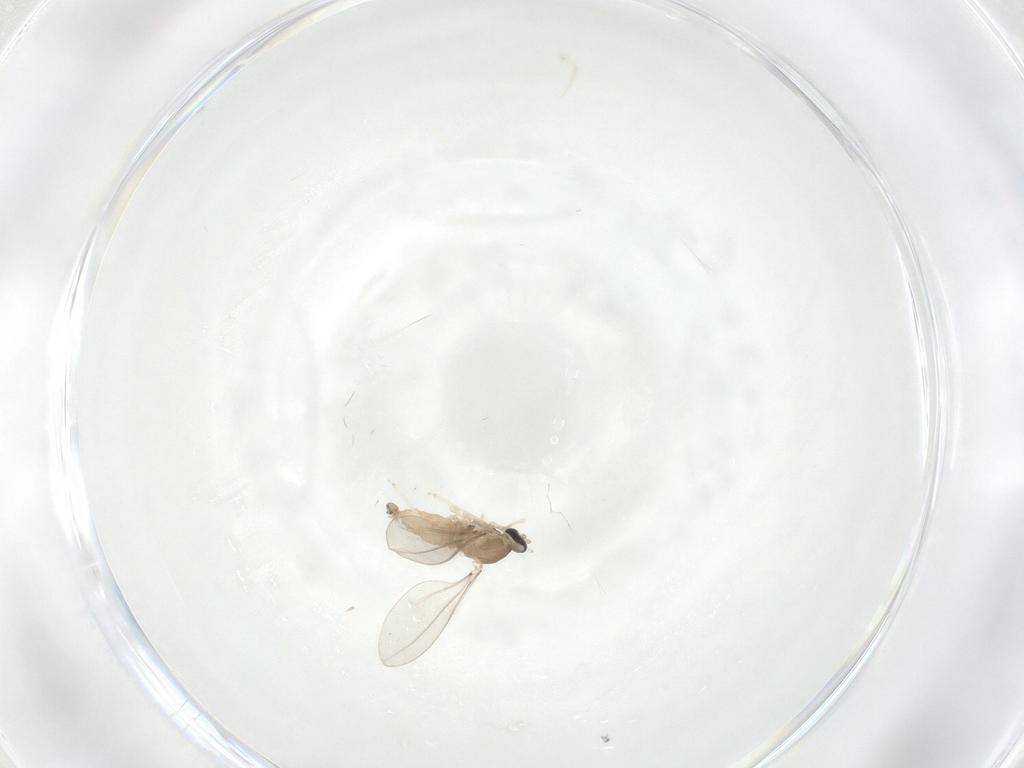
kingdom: Animalia
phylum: Arthropoda
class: Insecta
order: Diptera
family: Cecidomyiidae
